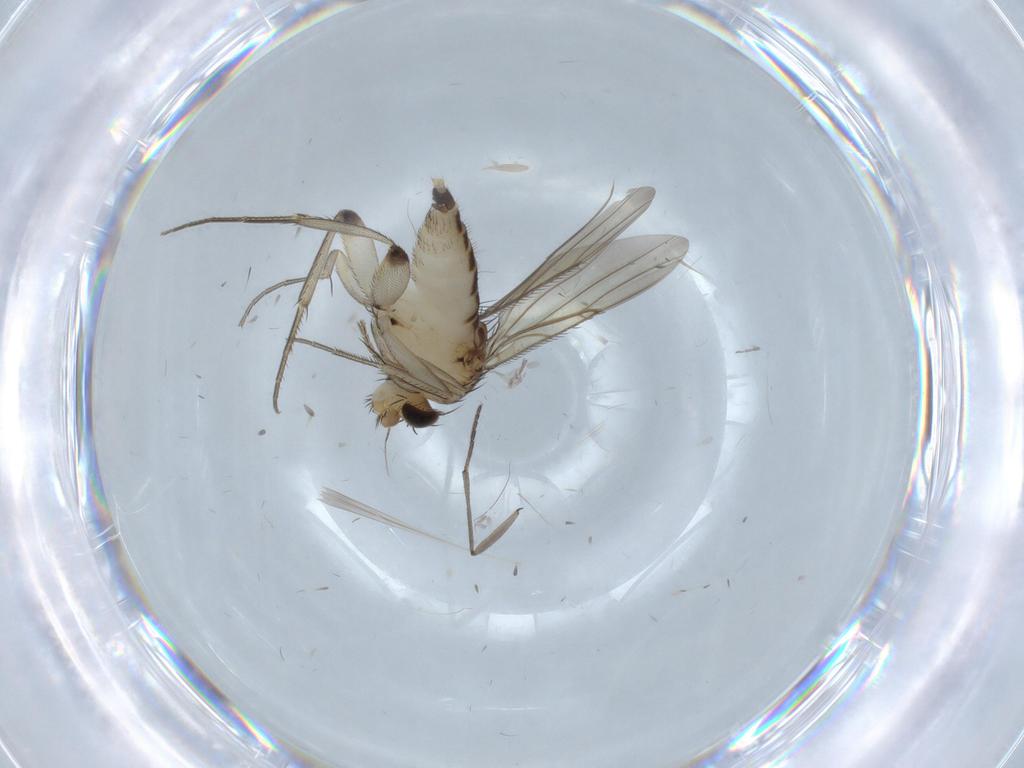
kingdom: Animalia
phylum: Arthropoda
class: Insecta
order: Diptera
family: Phoridae
